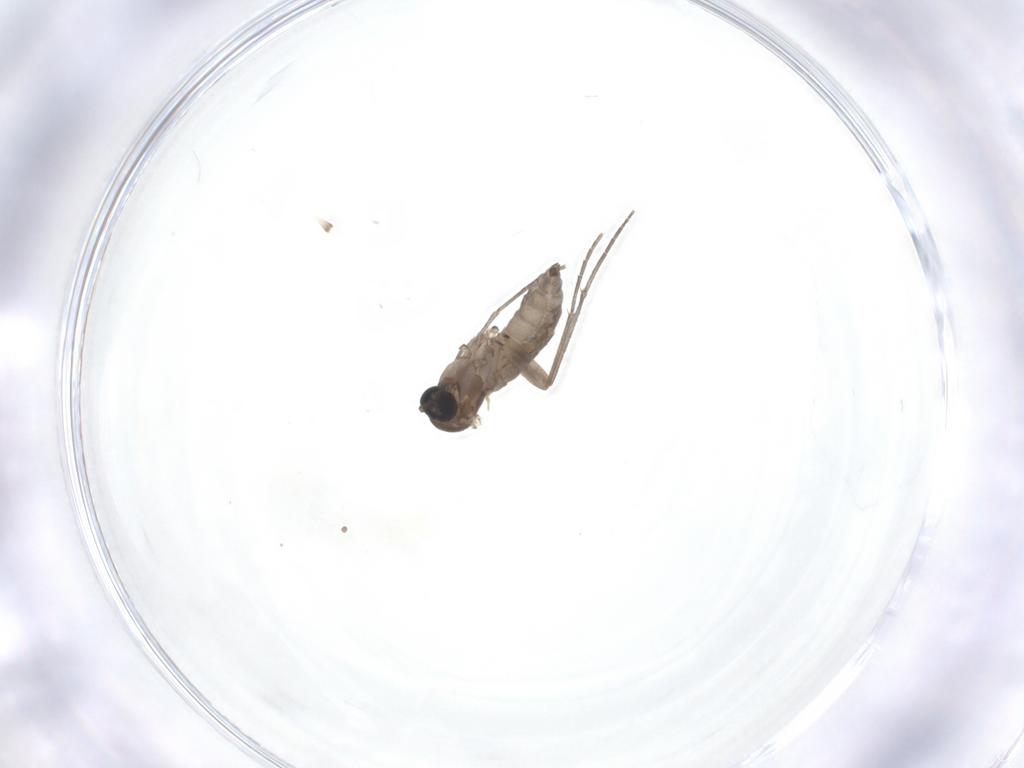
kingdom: Animalia
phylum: Arthropoda
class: Insecta
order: Diptera
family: Sciaridae
